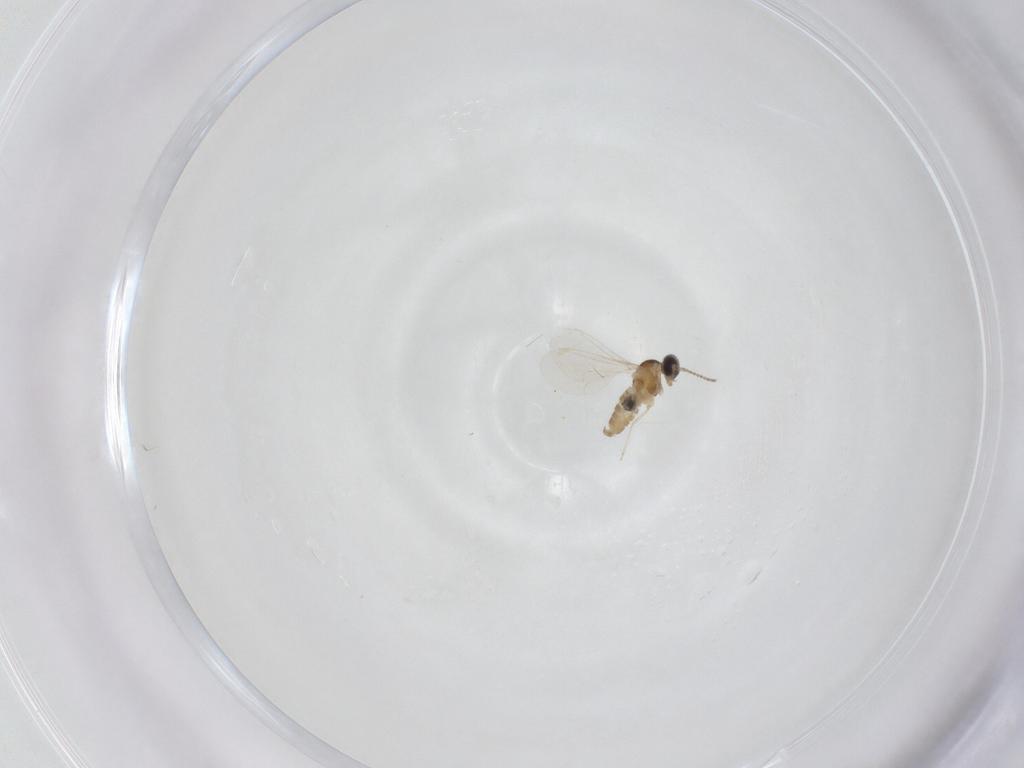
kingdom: Animalia
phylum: Arthropoda
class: Insecta
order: Diptera
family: Cecidomyiidae
